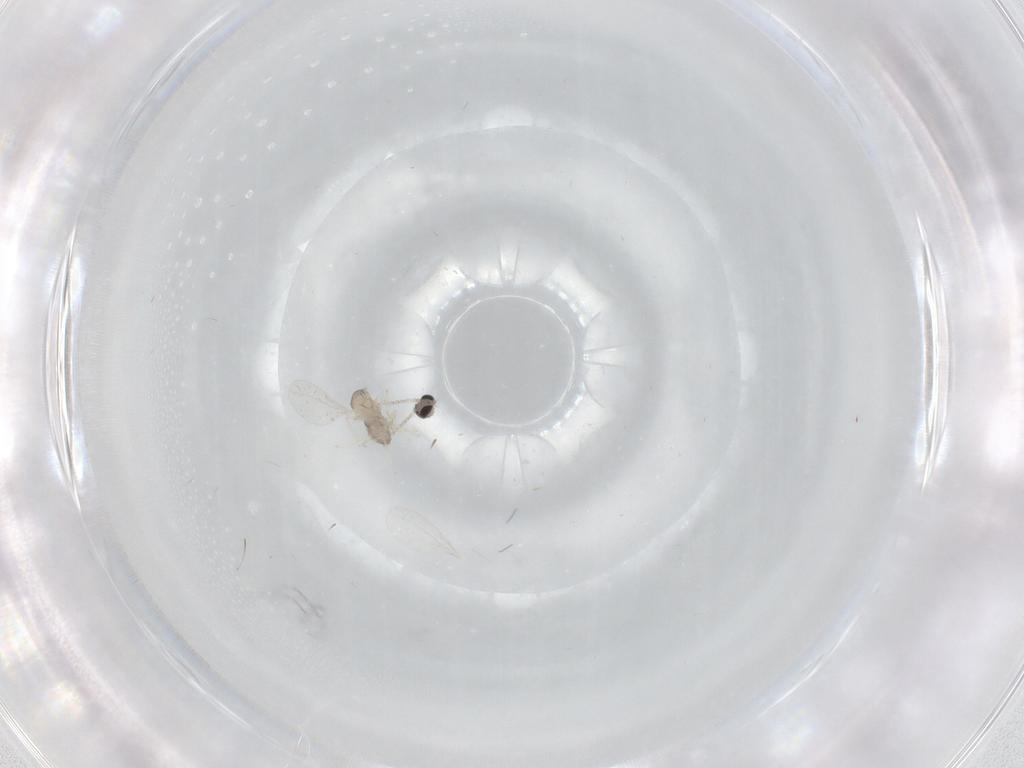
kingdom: Animalia
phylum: Arthropoda
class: Insecta
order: Diptera
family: Cecidomyiidae
